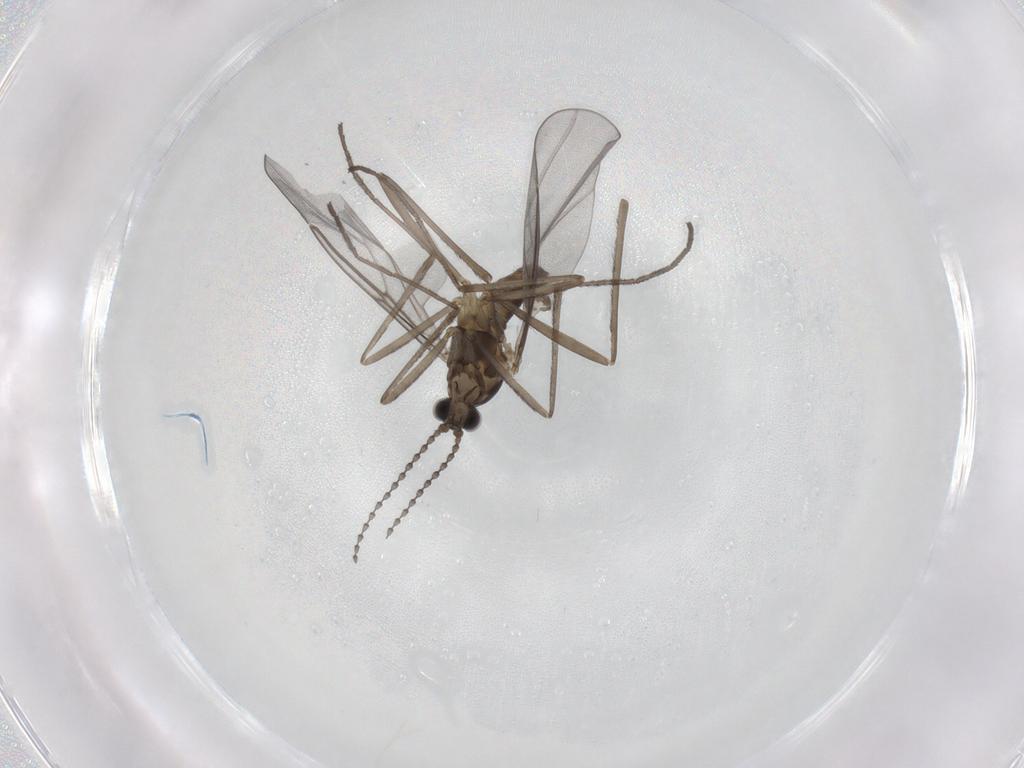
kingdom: Animalia
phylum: Arthropoda
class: Insecta
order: Diptera
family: Cecidomyiidae
